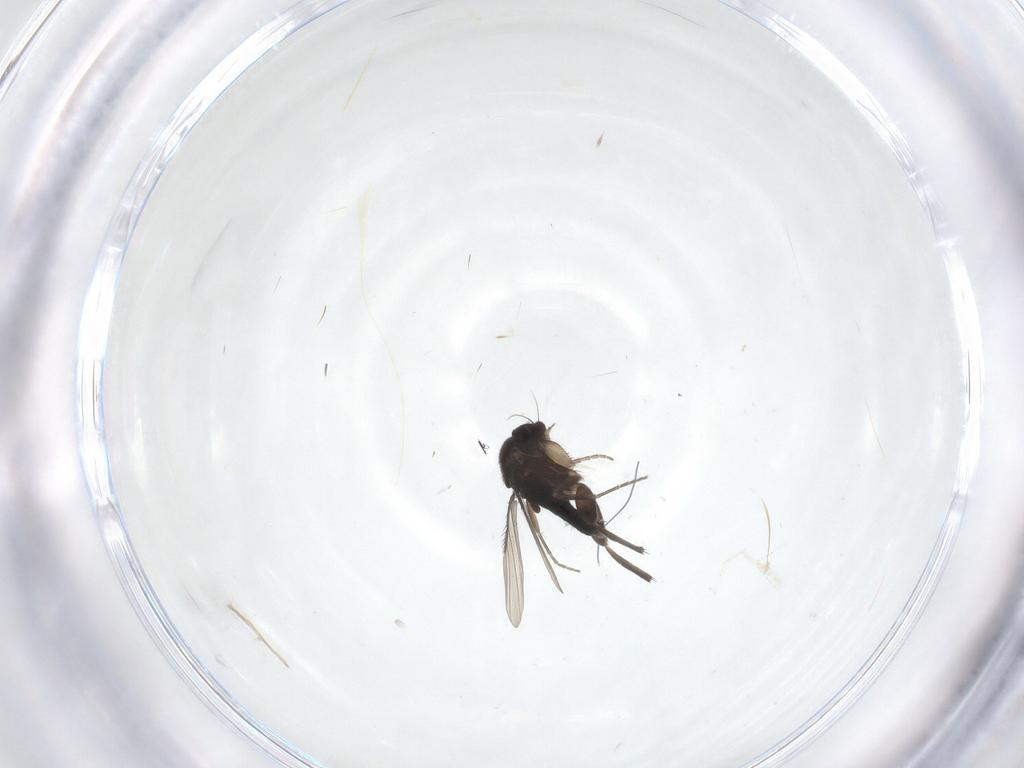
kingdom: Animalia
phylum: Arthropoda
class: Insecta
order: Diptera
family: Phoridae
